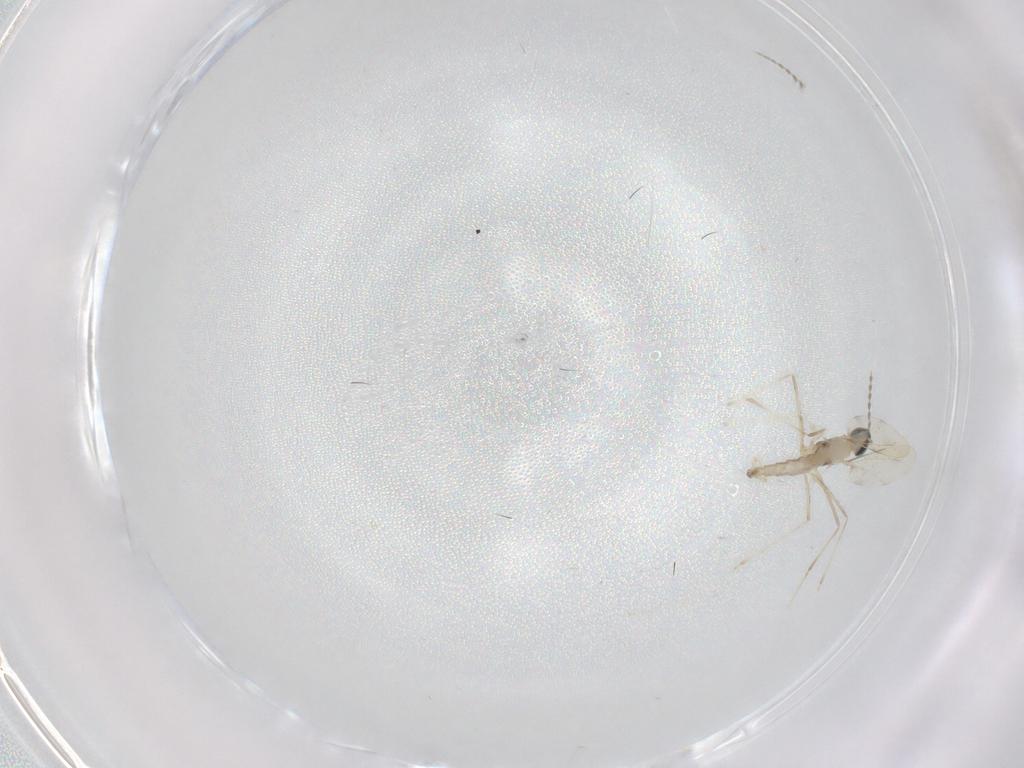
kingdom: Animalia
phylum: Arthropoda
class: Insecta
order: Diptera
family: Cecidomyiidae
